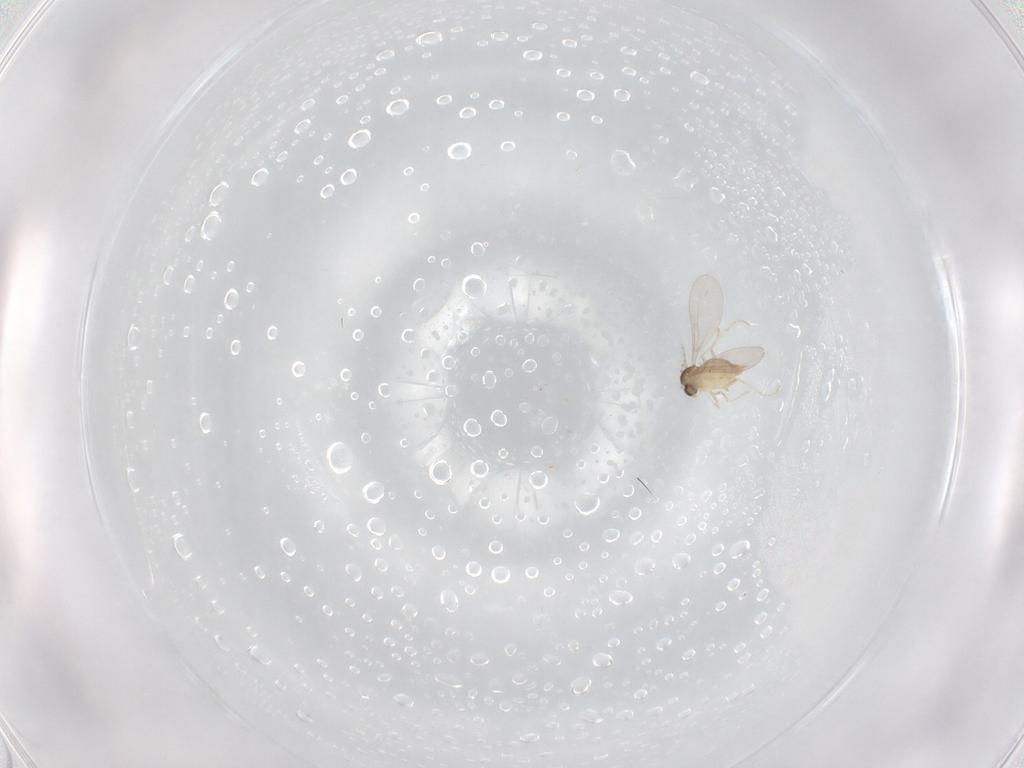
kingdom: Animalia
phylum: Arthropoda
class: Insecta
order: Diptera
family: Cecidomyiidae
